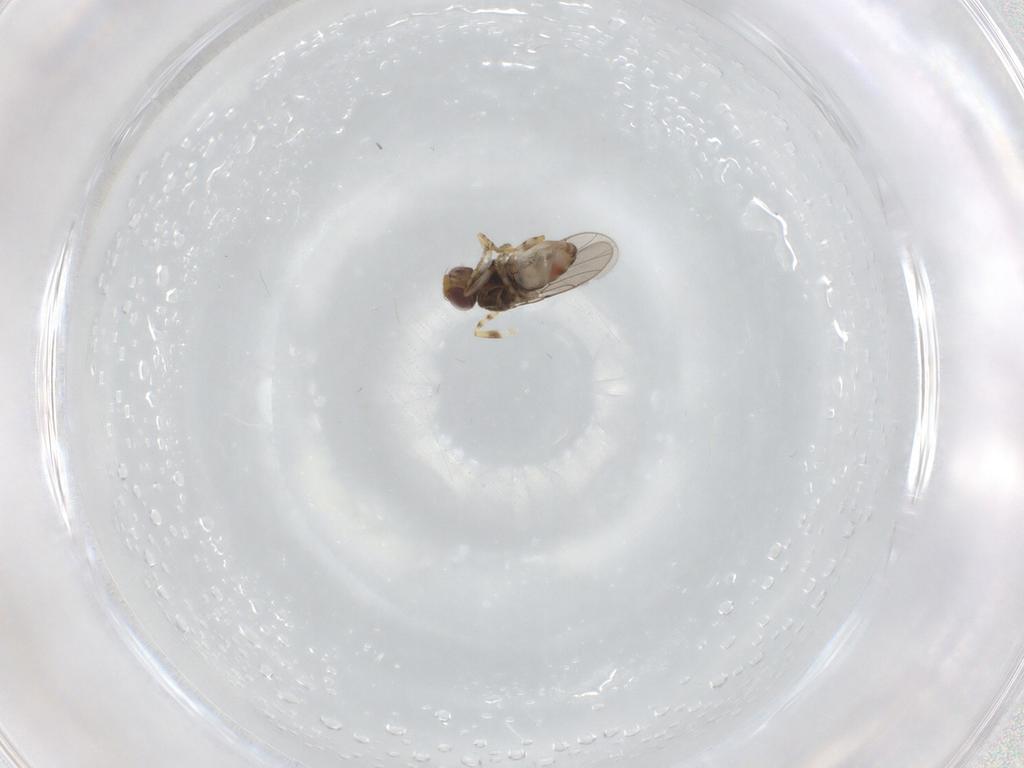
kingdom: Animalia
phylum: Arthropoda
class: Insecta
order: Diptera
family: Chloropidae
